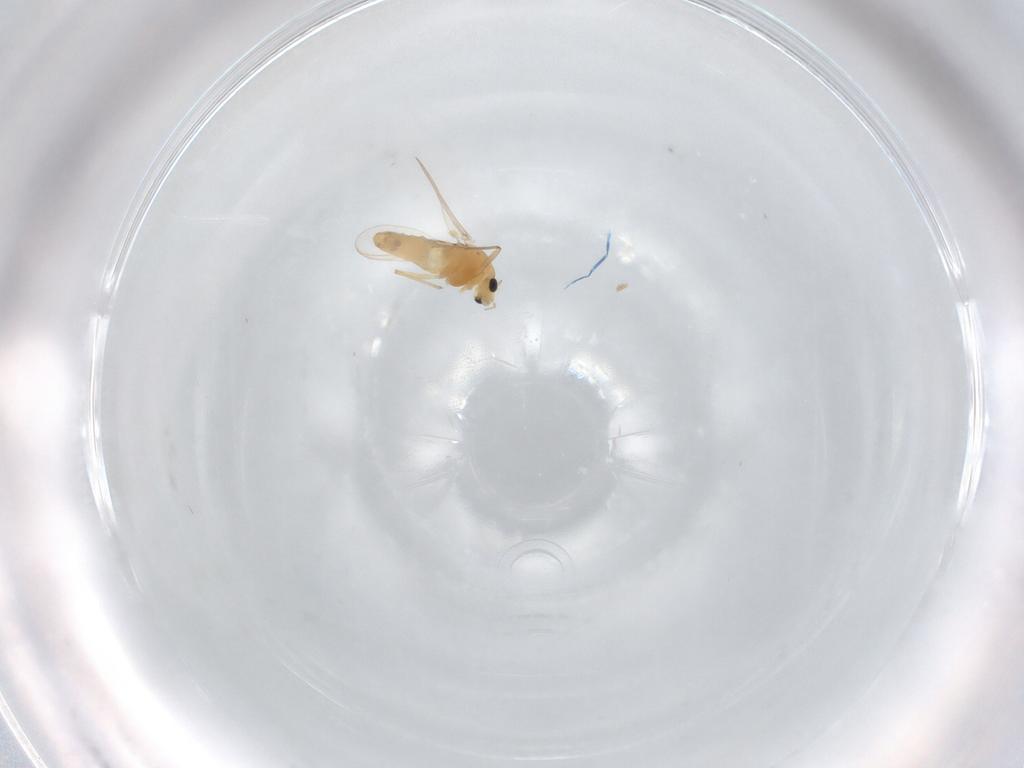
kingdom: Animalia
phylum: Arthropoda
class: Insecta
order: Diptera
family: Chironomidae
